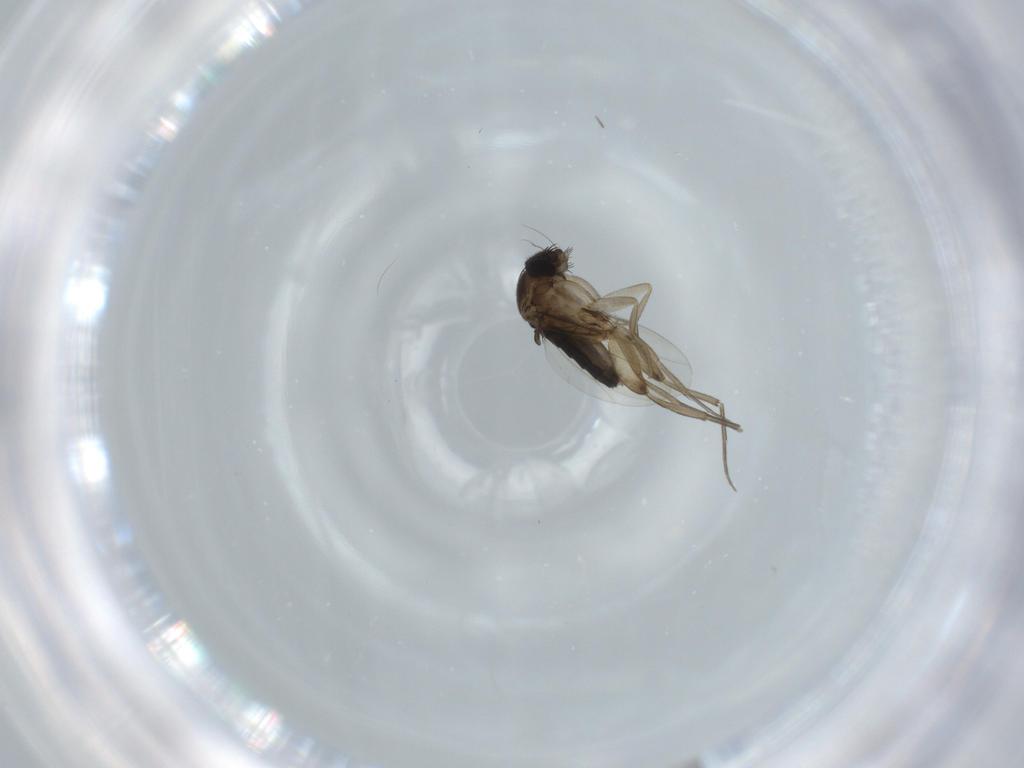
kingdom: Animalia
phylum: Arthropoda
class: Insecta
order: Diptera
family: Phoridae
